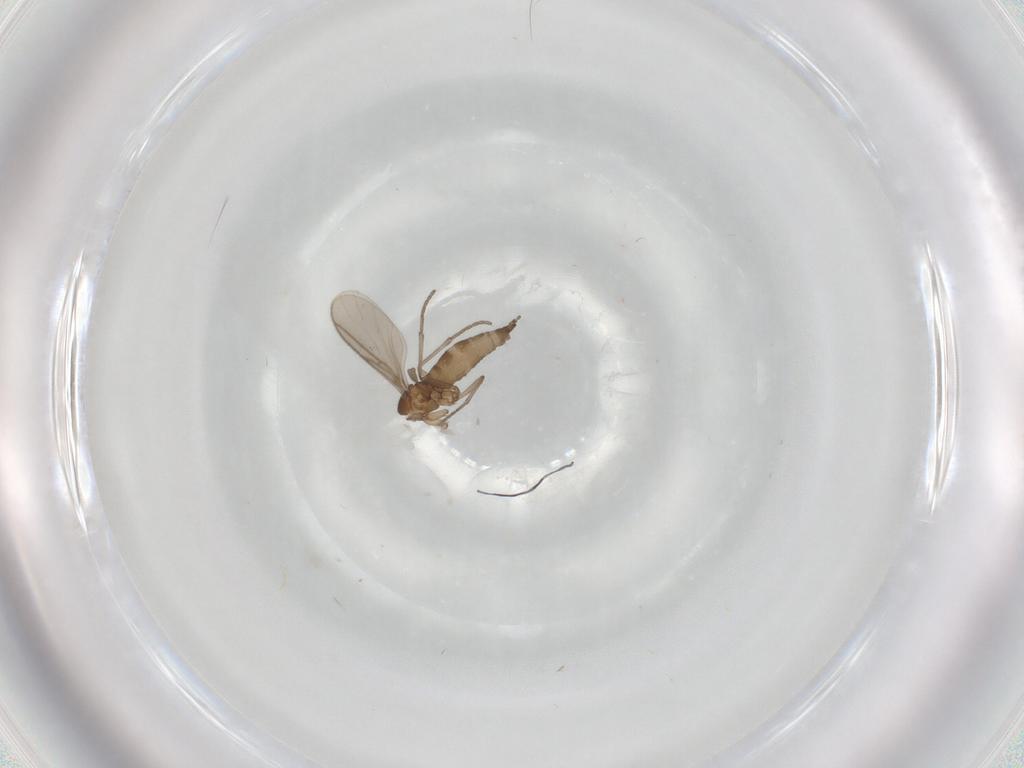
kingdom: Animalia
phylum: Arthropoda
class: Insecta
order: Diptera
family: Sciaridae
